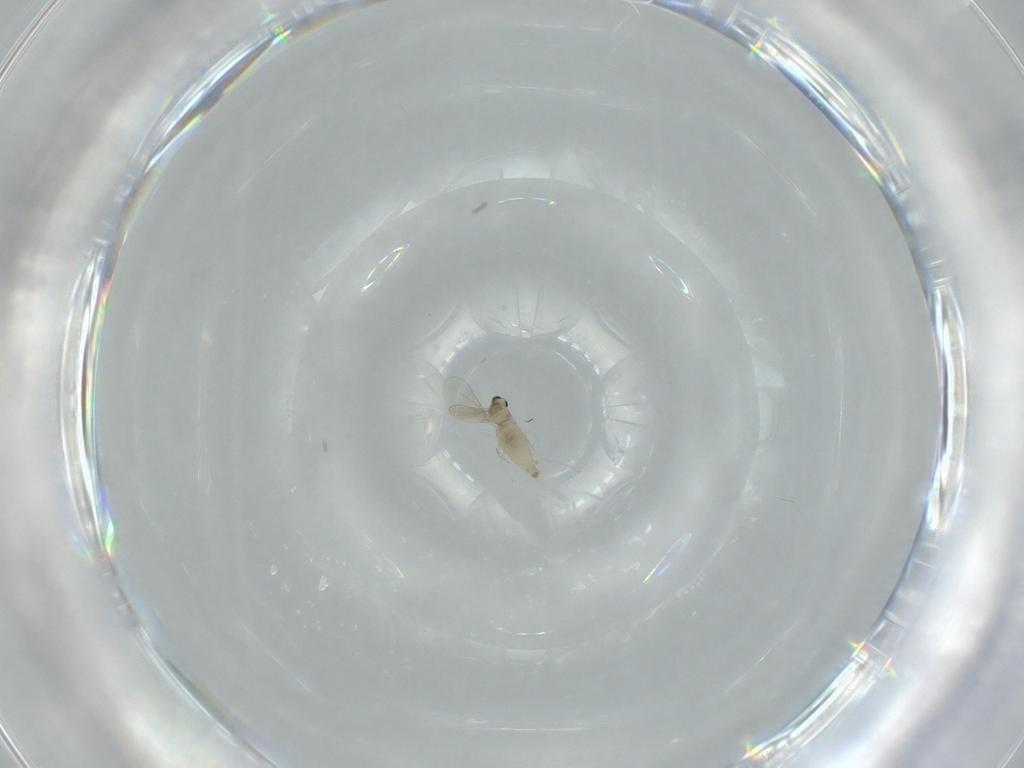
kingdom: Animalia
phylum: Arthropoda
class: Insecta
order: Diptera
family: Cecidomyiidae
